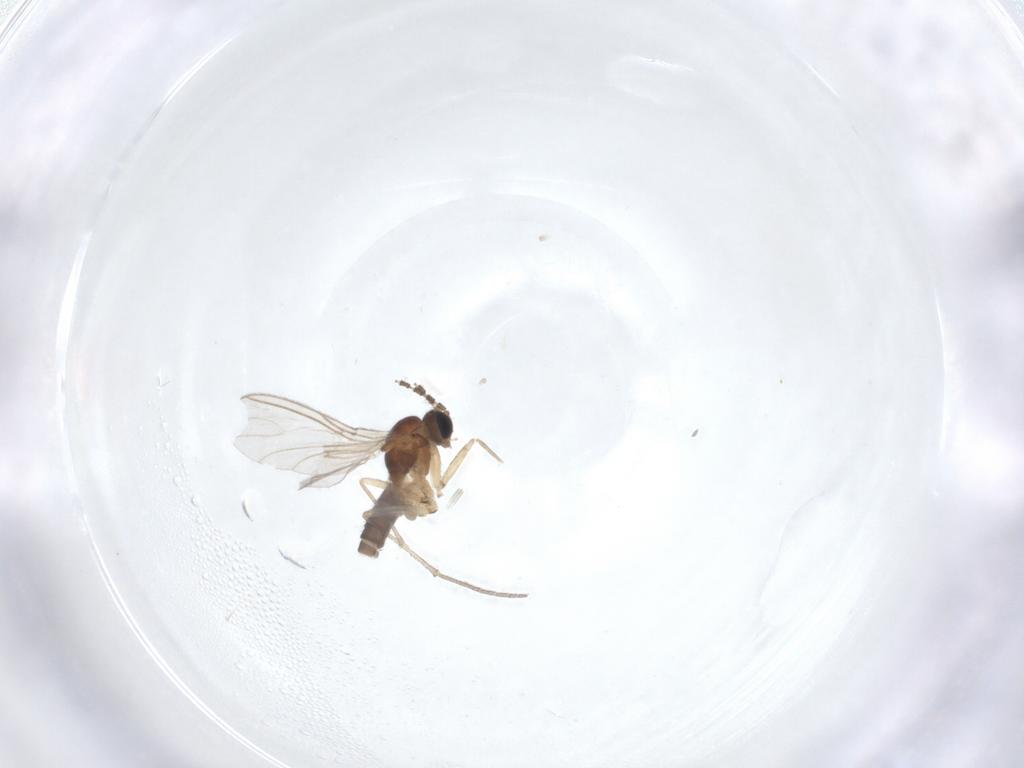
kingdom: Animalia
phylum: Arthropoda
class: Insecta
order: Diptera
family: Sciaridae
